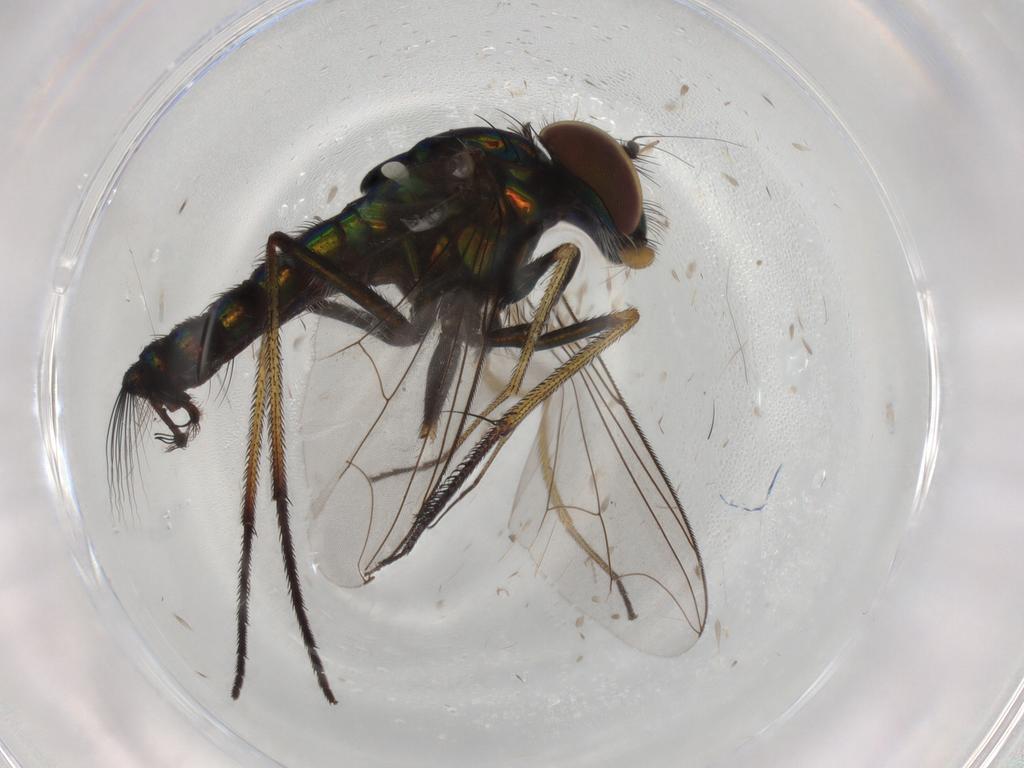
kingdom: Animalia
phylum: Arthropoda
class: Insecta
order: Diptera
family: Dolichopodidae
